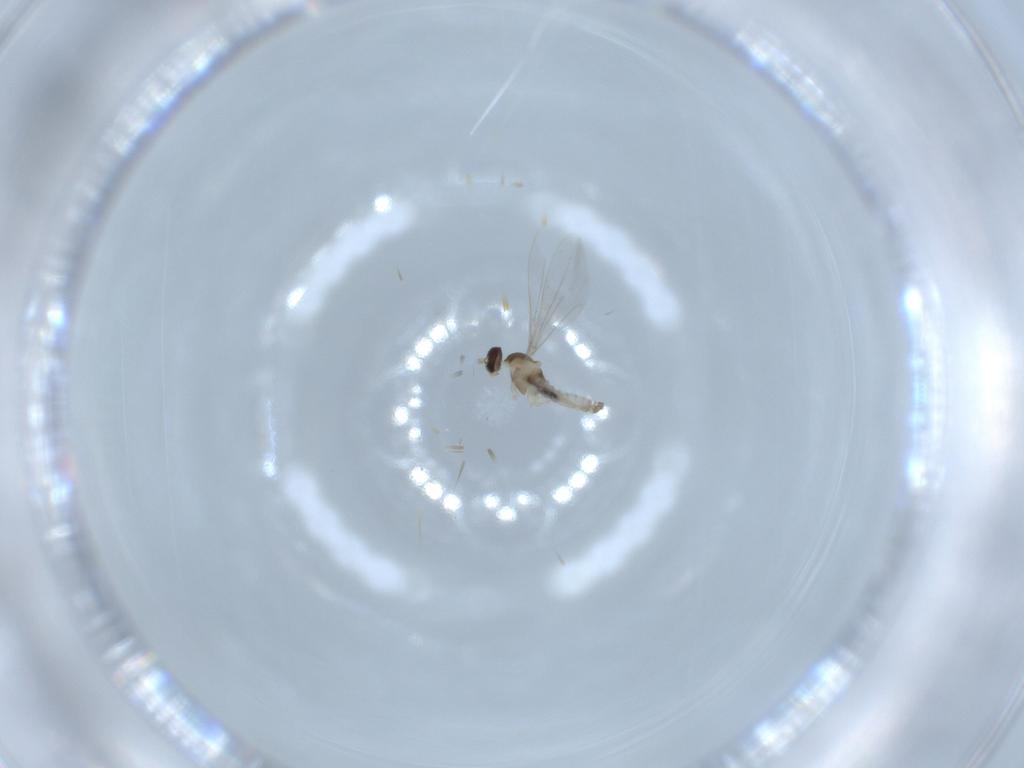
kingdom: Animalia
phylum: Arthropoda
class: Insecta
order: Diptera
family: Cecidomyiidae
